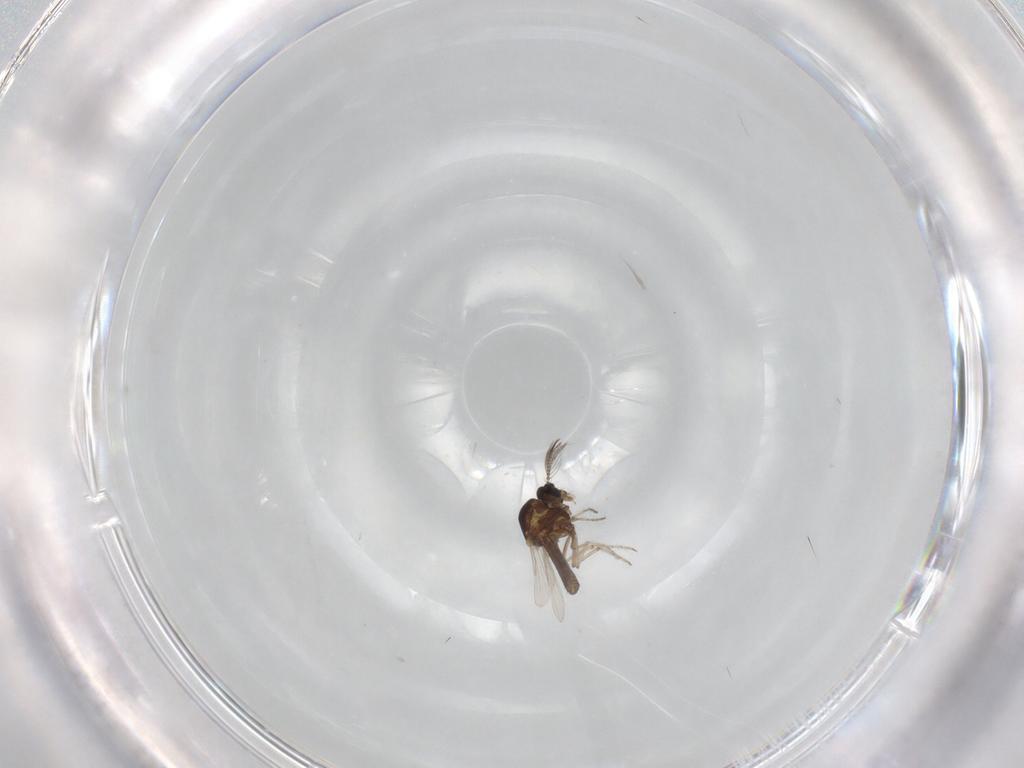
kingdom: Animalia
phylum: Arthropoda
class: Insecta
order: Diptera
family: Ceratopogonidae
